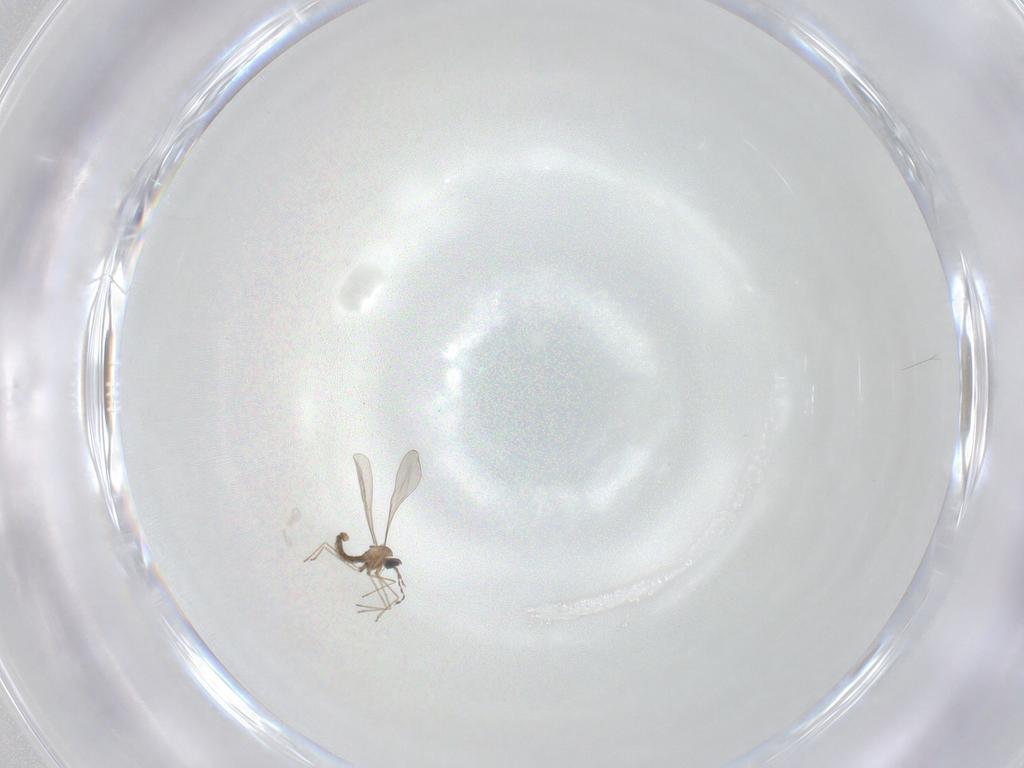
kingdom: Animalia
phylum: Arthropoda
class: Insecta
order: Diptera
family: Cecidomyiidae
